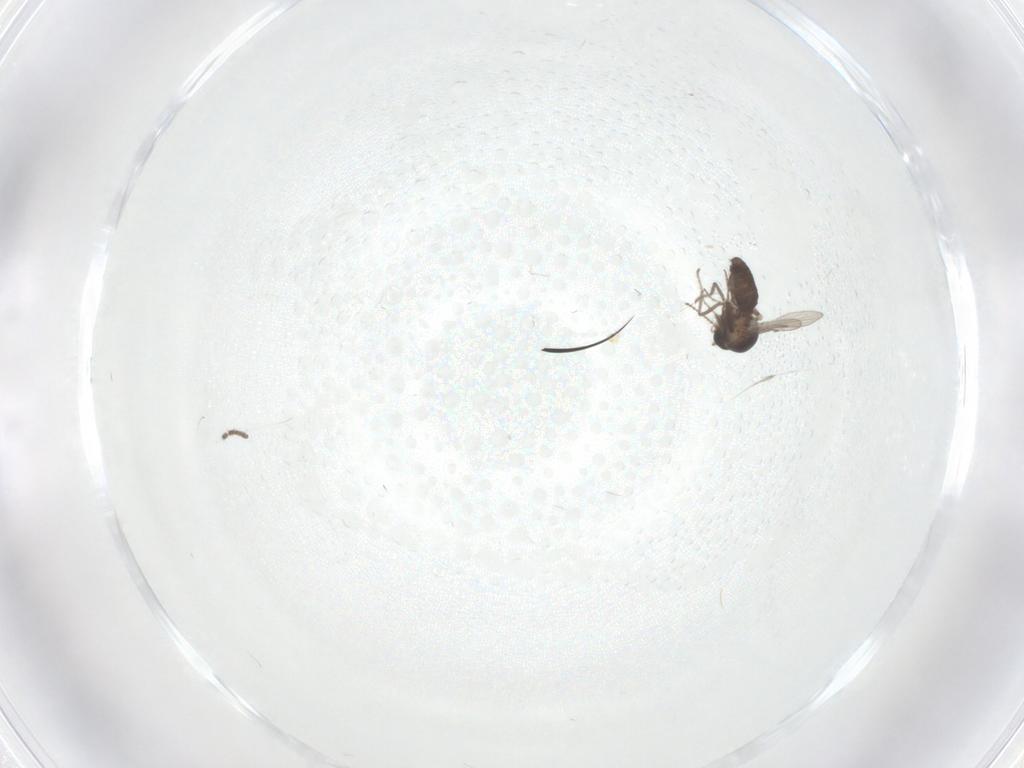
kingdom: Animalia
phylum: Arthropoda
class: Insecta
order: Diptera
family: Ceratopogonidae
